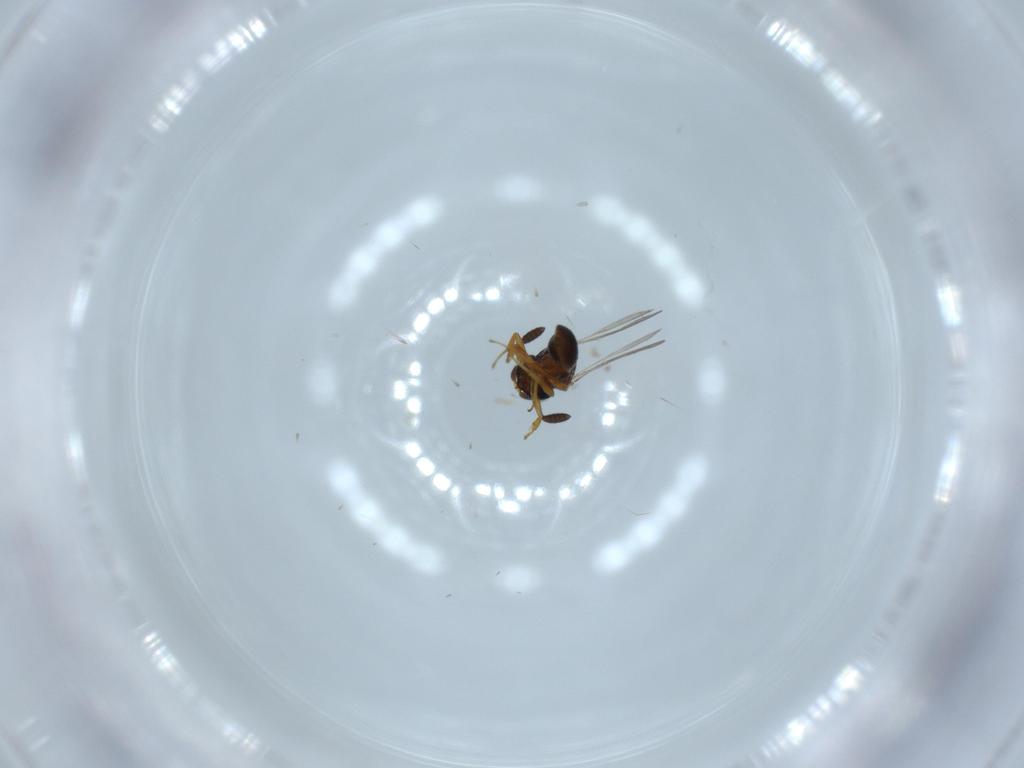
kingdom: Animalia
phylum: Arthropoda
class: Insecta
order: Hymenoptera
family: Scelionidae
